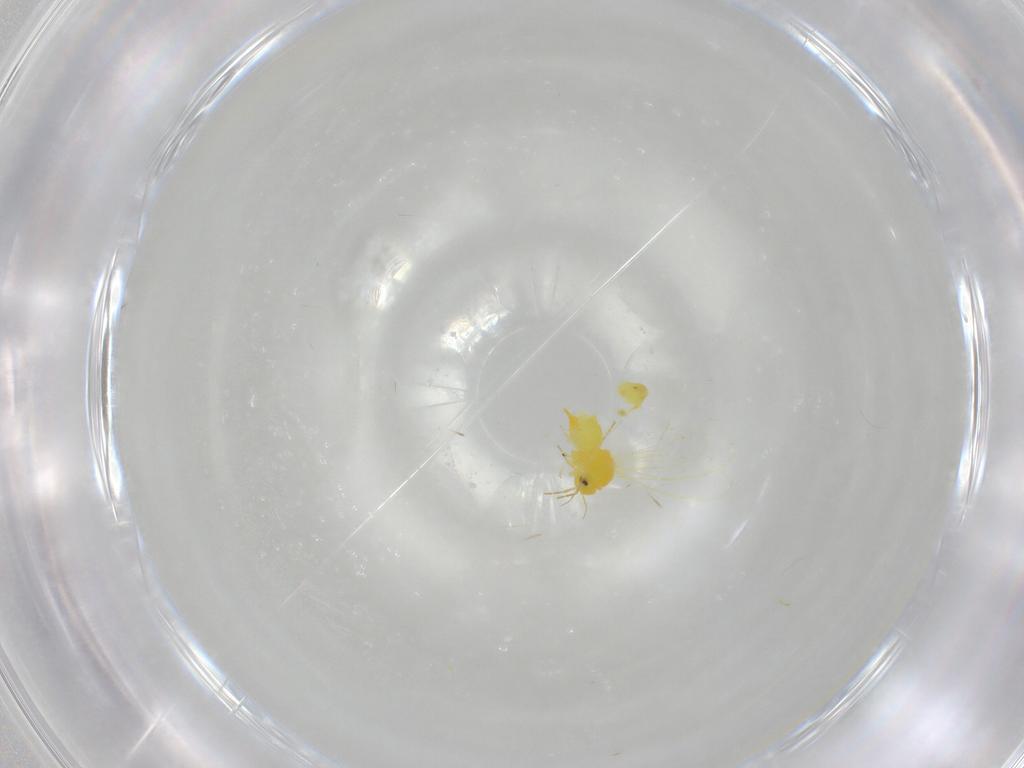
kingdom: Animalia
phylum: Arthropoda
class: Insecta
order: Hemiptera
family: Aleyrodidae
